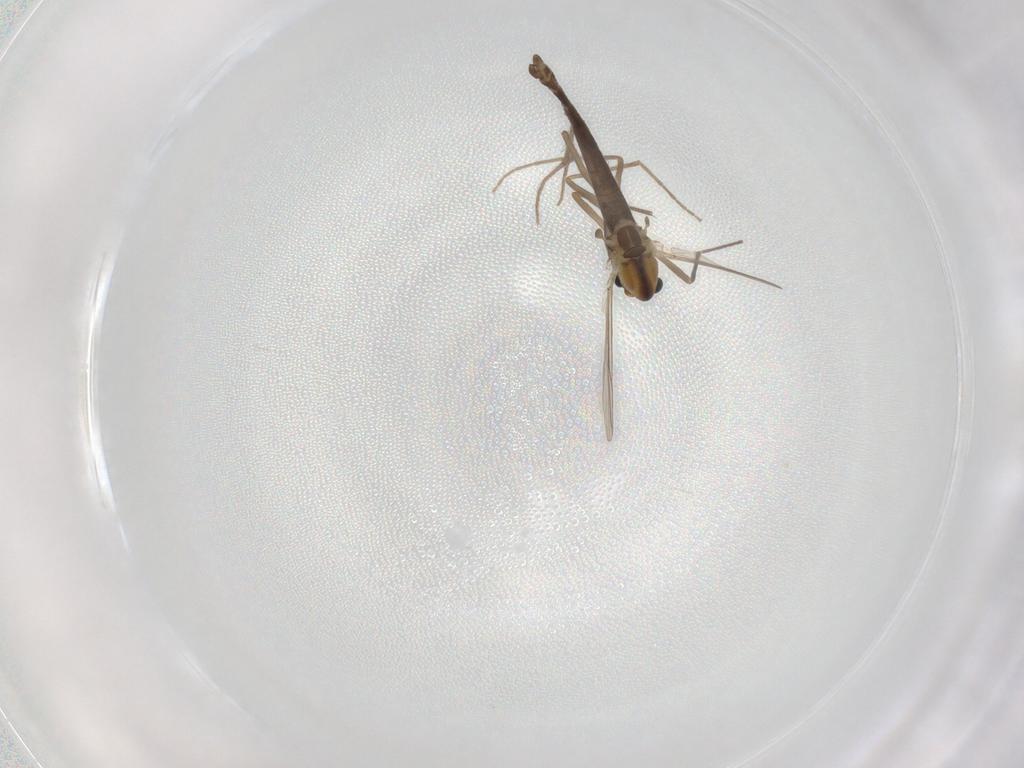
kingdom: Animalia
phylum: Arthropoda
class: Insecta
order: Diptera
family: Chironomidae
